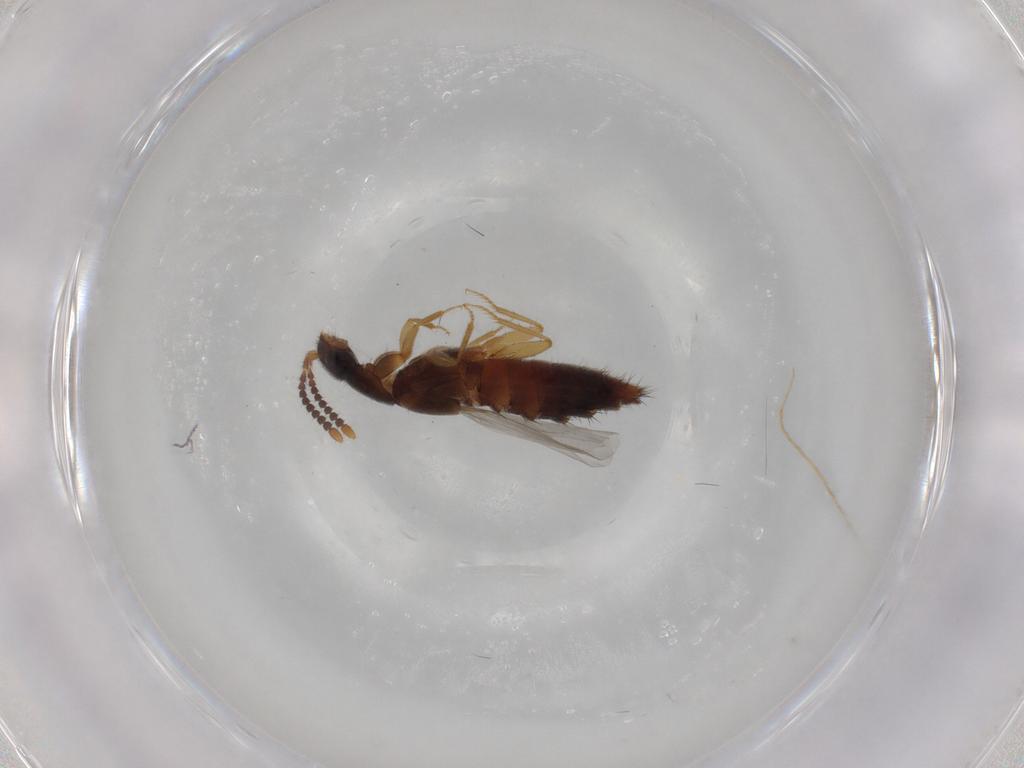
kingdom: Animalia
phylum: Arthropoda
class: Insecta
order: Coleoptera
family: Staphylinidae
